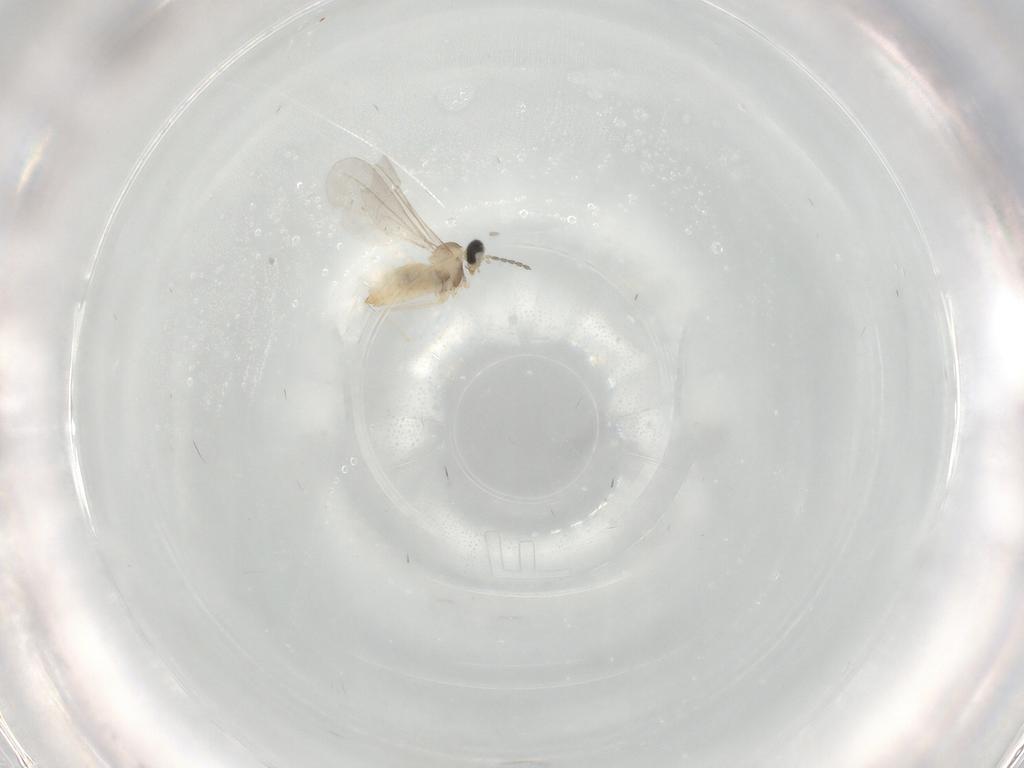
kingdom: Animalia
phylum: Arthropoda
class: Insecta
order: Diptera
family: Cecidomyiidae
